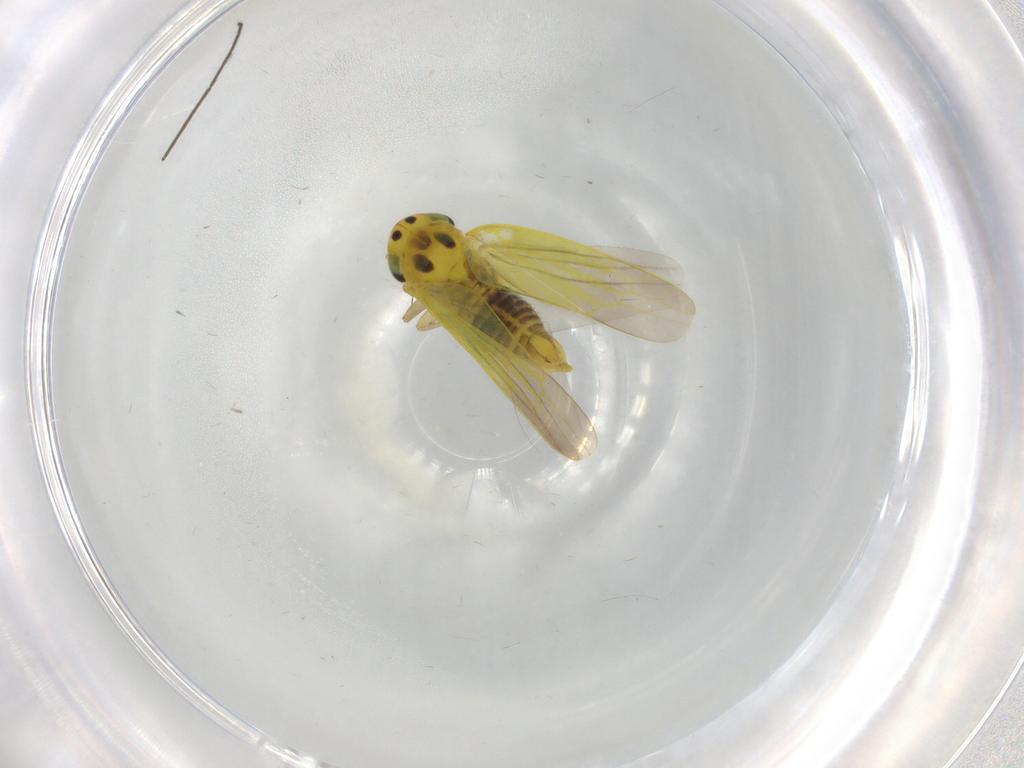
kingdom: Animalia
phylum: Arthropoda
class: Insecta
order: Hemiptera
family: Cicadellidae
